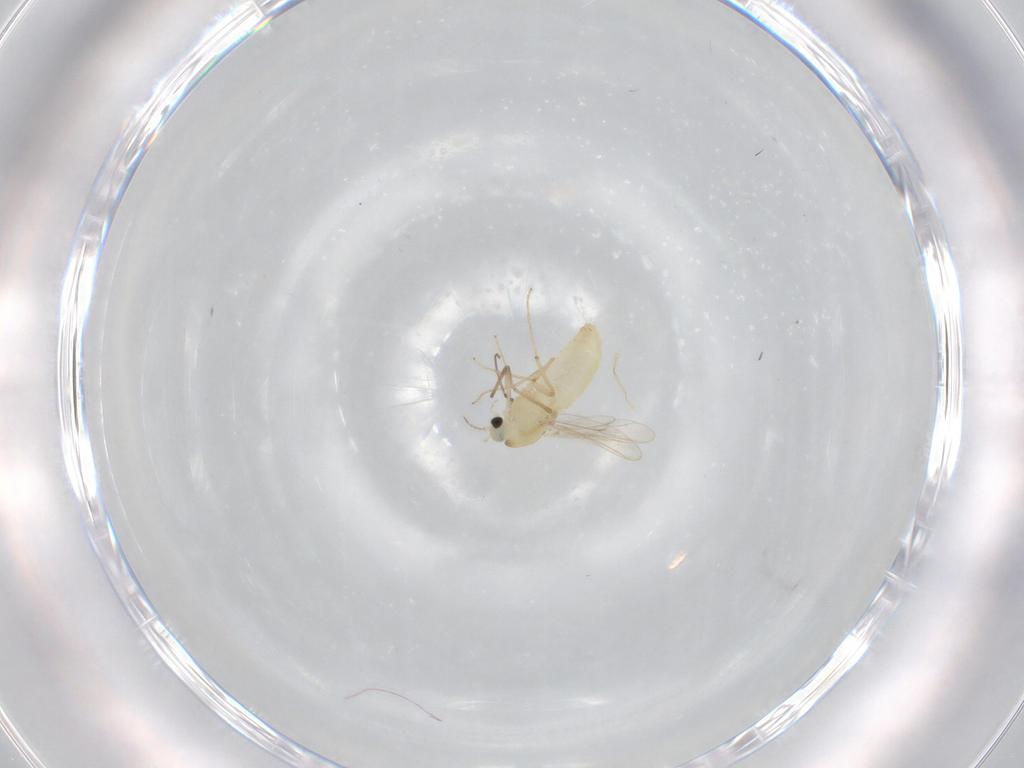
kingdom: Animalia
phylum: Arthropoda
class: Insecta
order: Diptera
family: Chironomidae
